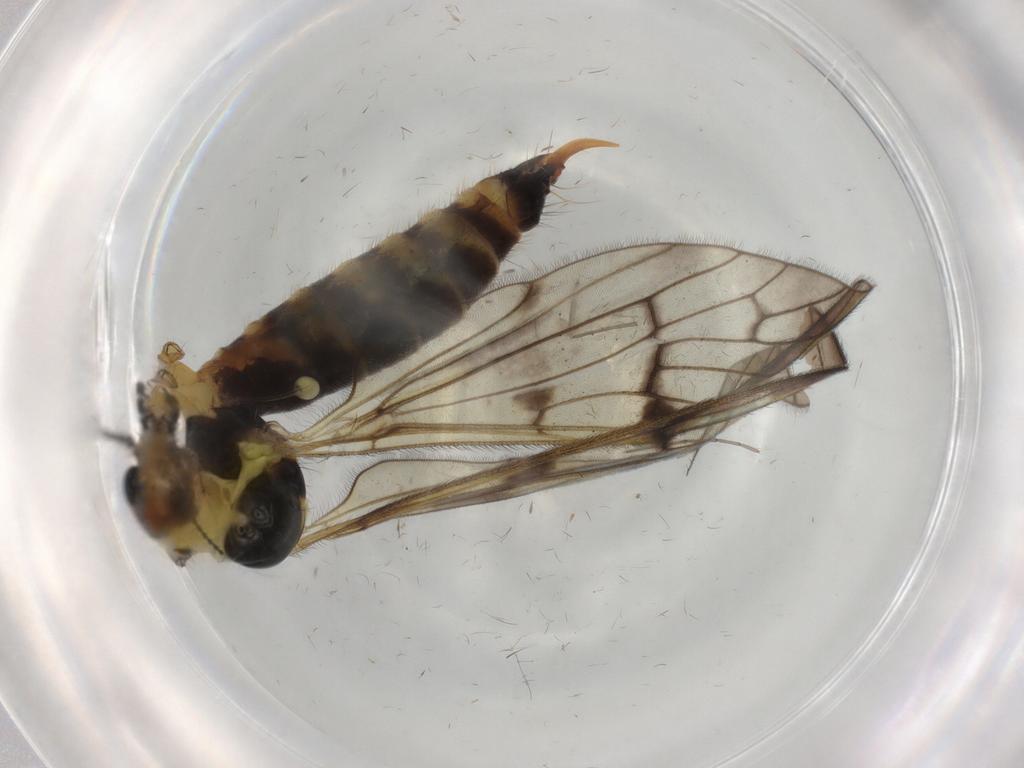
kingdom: Animalia
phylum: Arthropoda
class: Insecta
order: Diptera
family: Limoniidae
